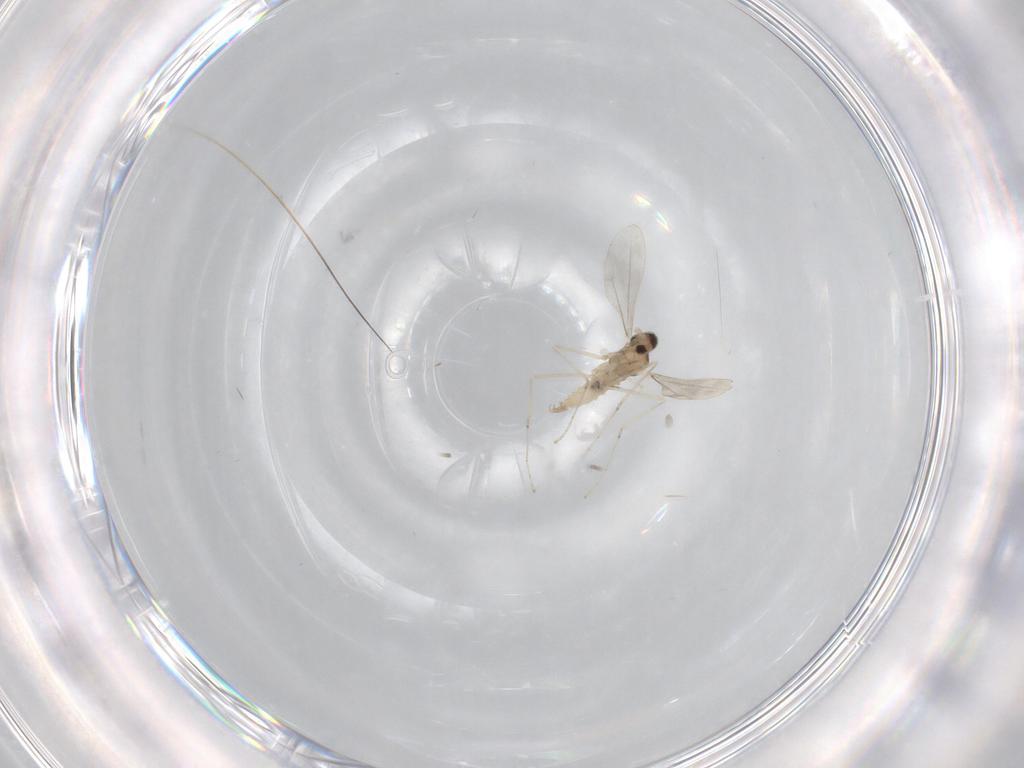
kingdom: Animalia
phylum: Arthropoda
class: Insecta
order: Diptera
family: Cecidomyiidae
